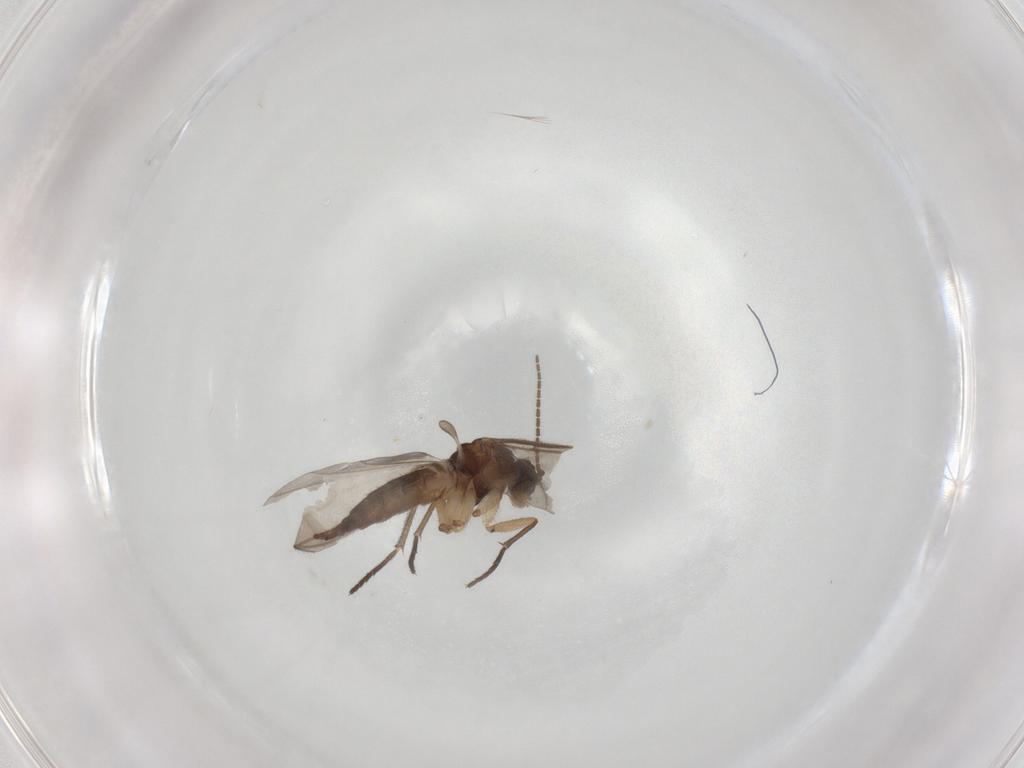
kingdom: Animalia
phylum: Arthropoda
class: Insecta
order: Diptera
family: Sciaridae
